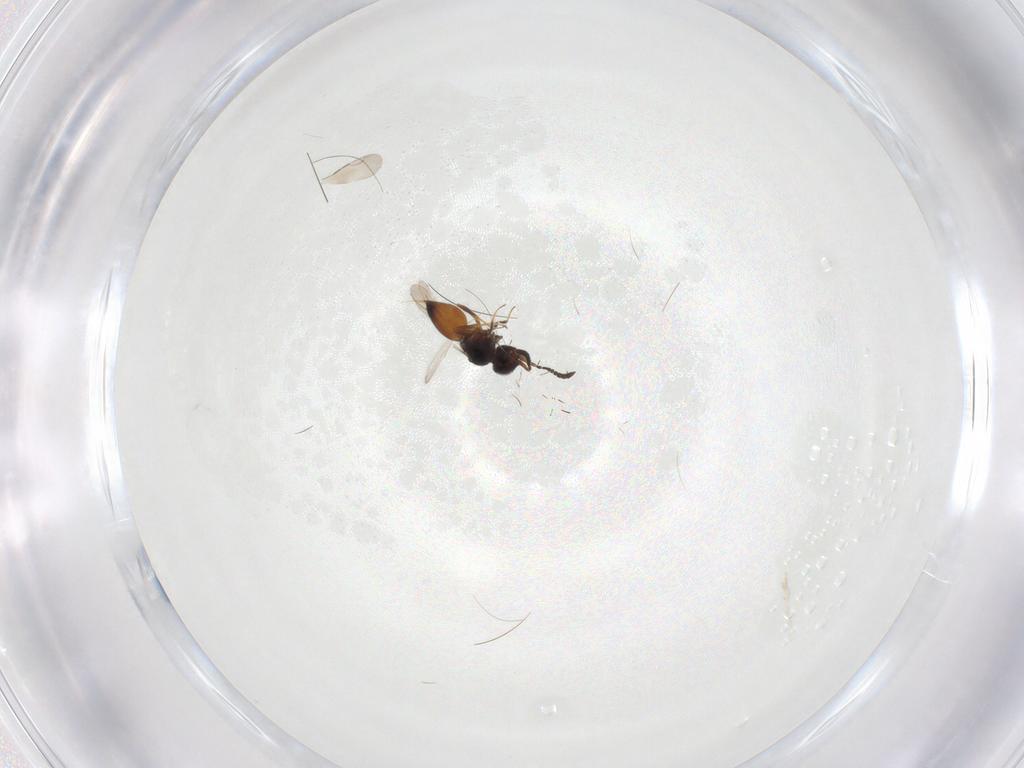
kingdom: Animalia
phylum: Arthropoda
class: Insecta
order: Hymenoptera
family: Ceraphronidae
